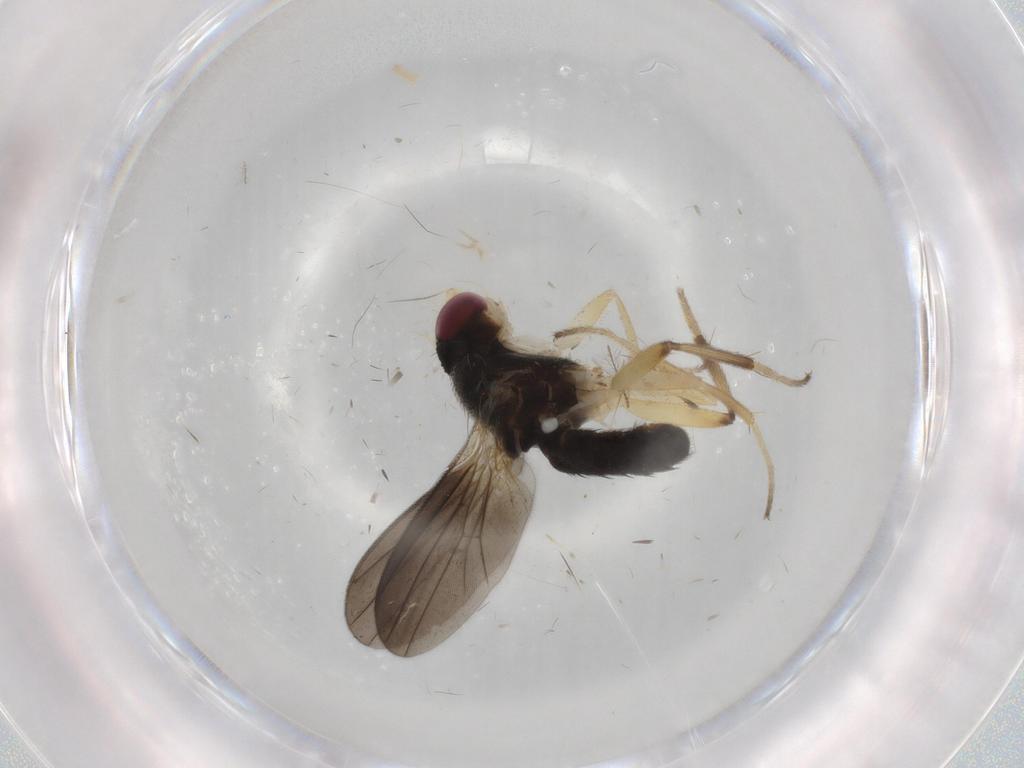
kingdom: Animalia
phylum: Arthropoda
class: Insecta
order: Diptera
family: Clusiidae
